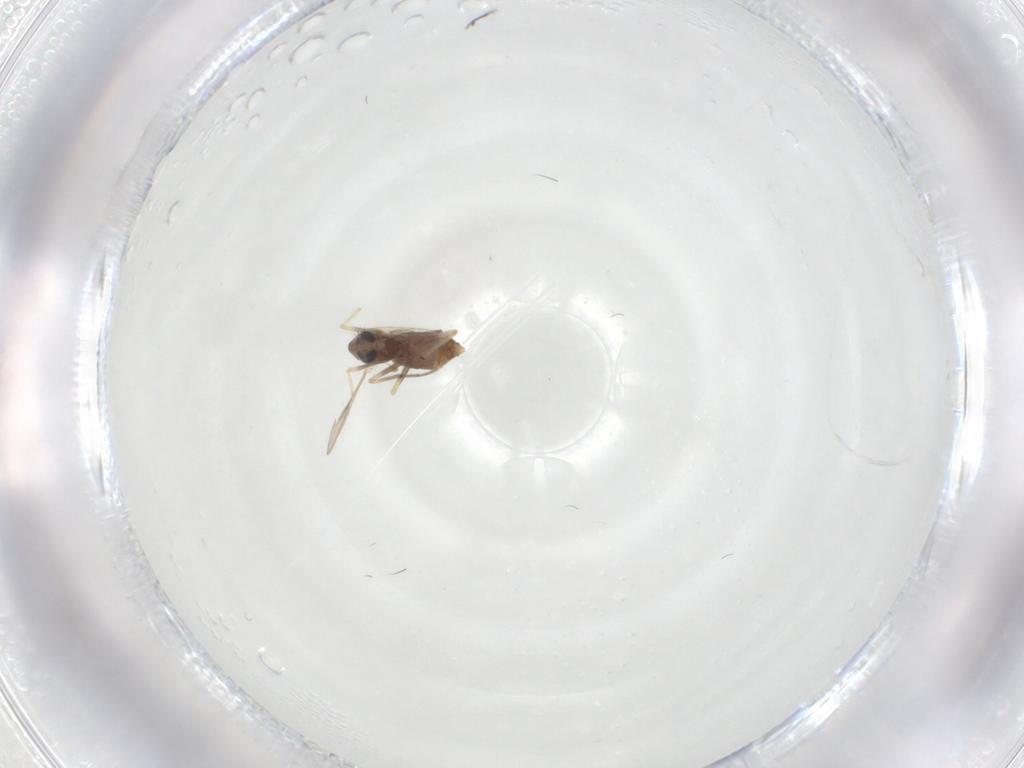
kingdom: Animalia
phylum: Arthropoda
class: Insecta
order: Diptera
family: Chironomidae
